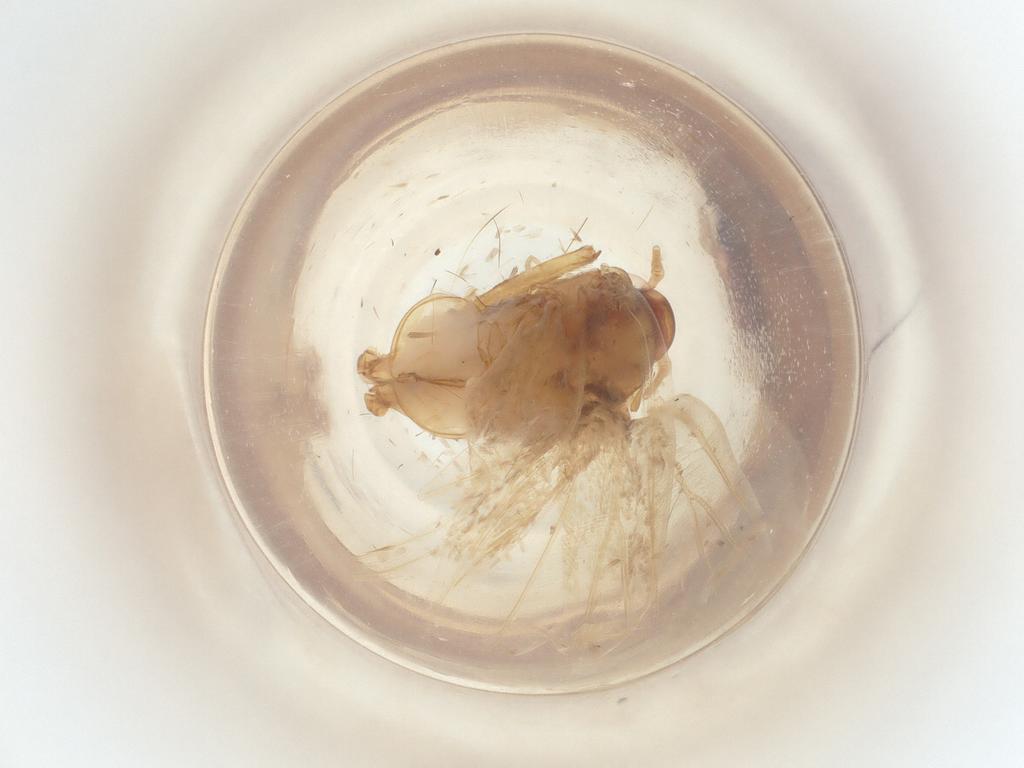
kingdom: Animalia
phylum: Arthropoda
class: Insecta
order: Lepidoptera
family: Lecithoceridae
